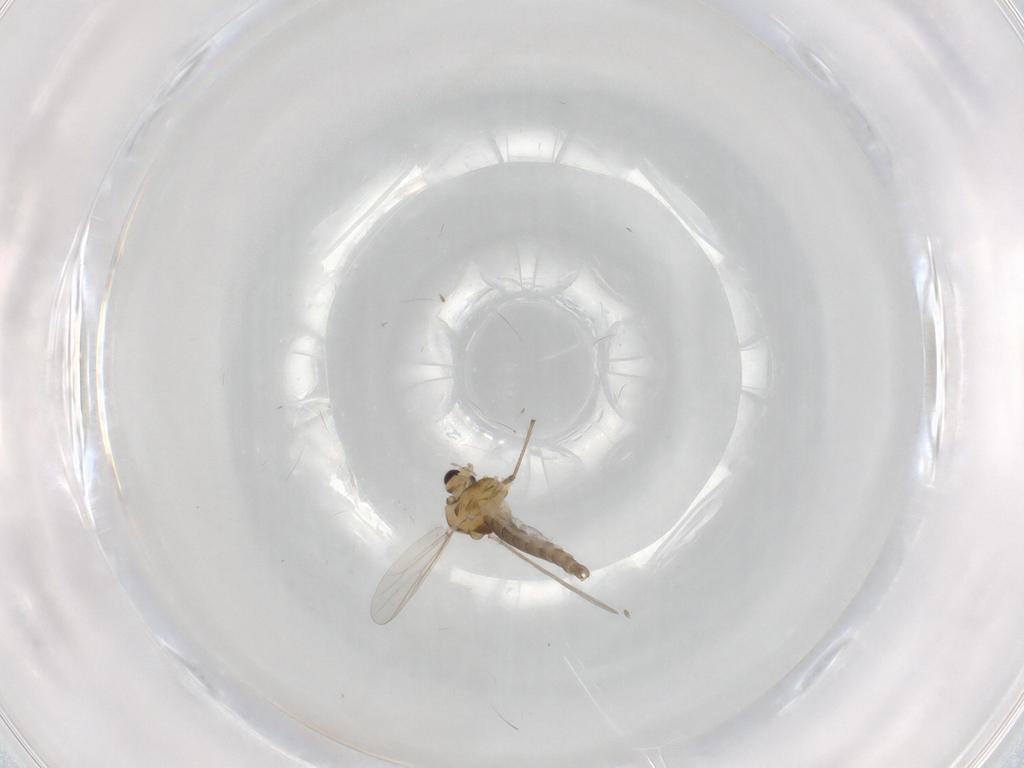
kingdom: Animalia
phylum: Arthropoda
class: Insecta
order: Diptera
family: Chironomidae
